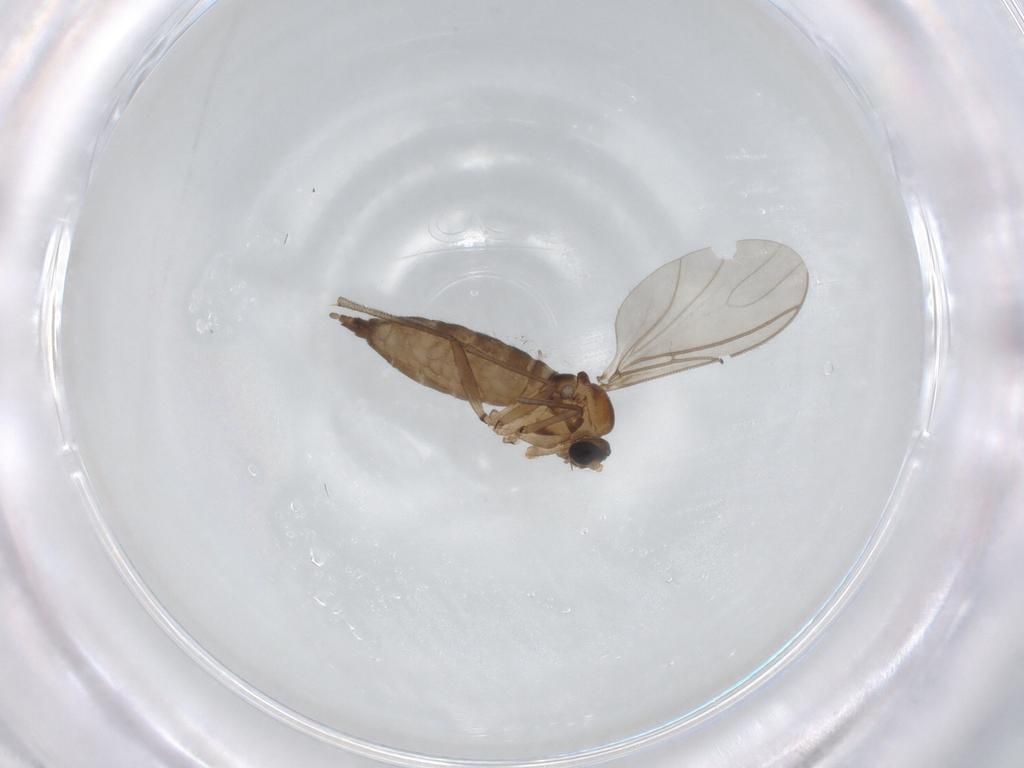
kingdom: Animalia
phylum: Arthropoda
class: Insecta
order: Diptera
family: Sciaridae
